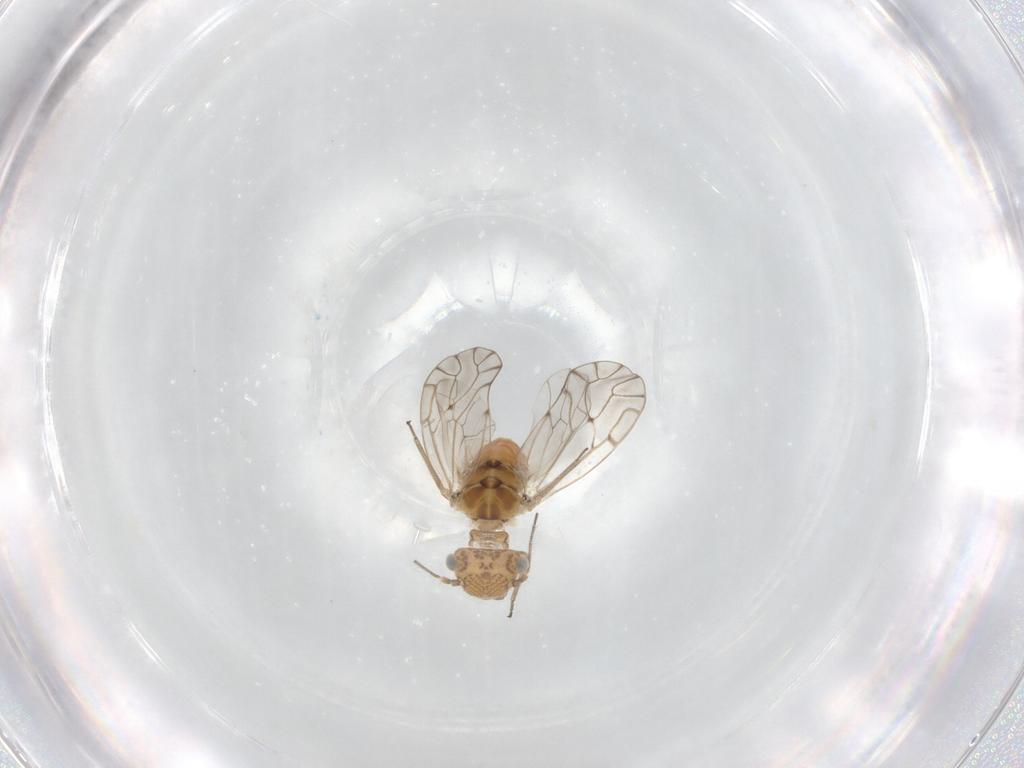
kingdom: Animalia
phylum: Arthropoda
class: Insecta
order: Psocodea
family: Ectopsocidae
